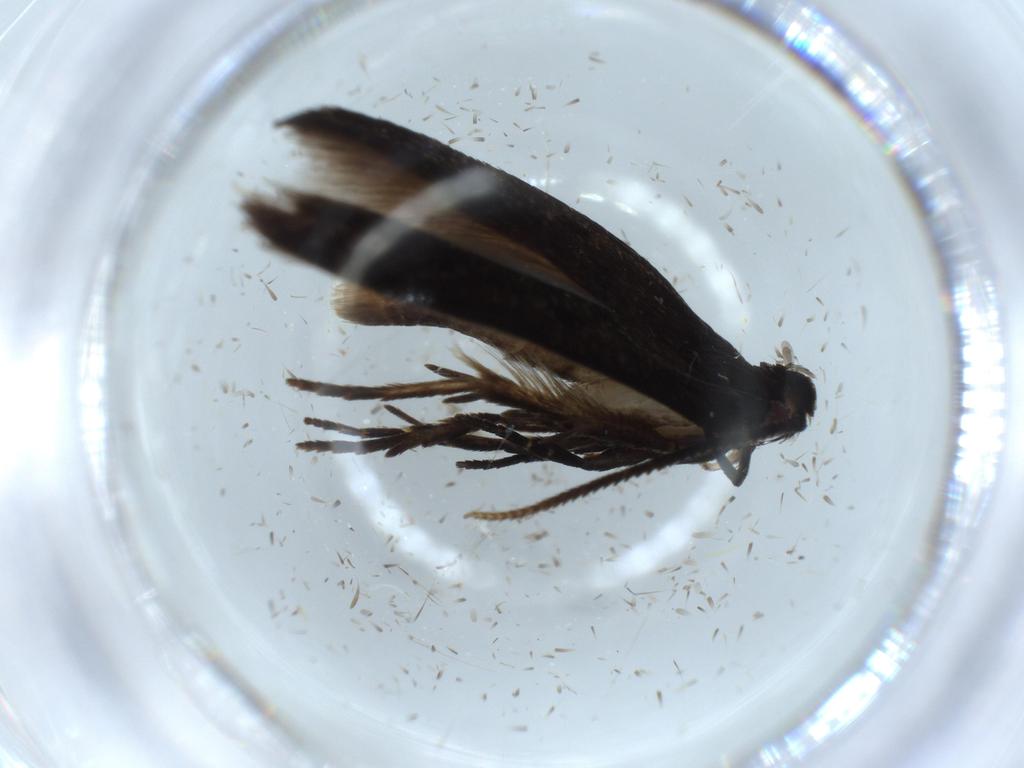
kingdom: Animalia
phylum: Arthropoda
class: Insecta
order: Lepidoptera
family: Cosmopterigidae
